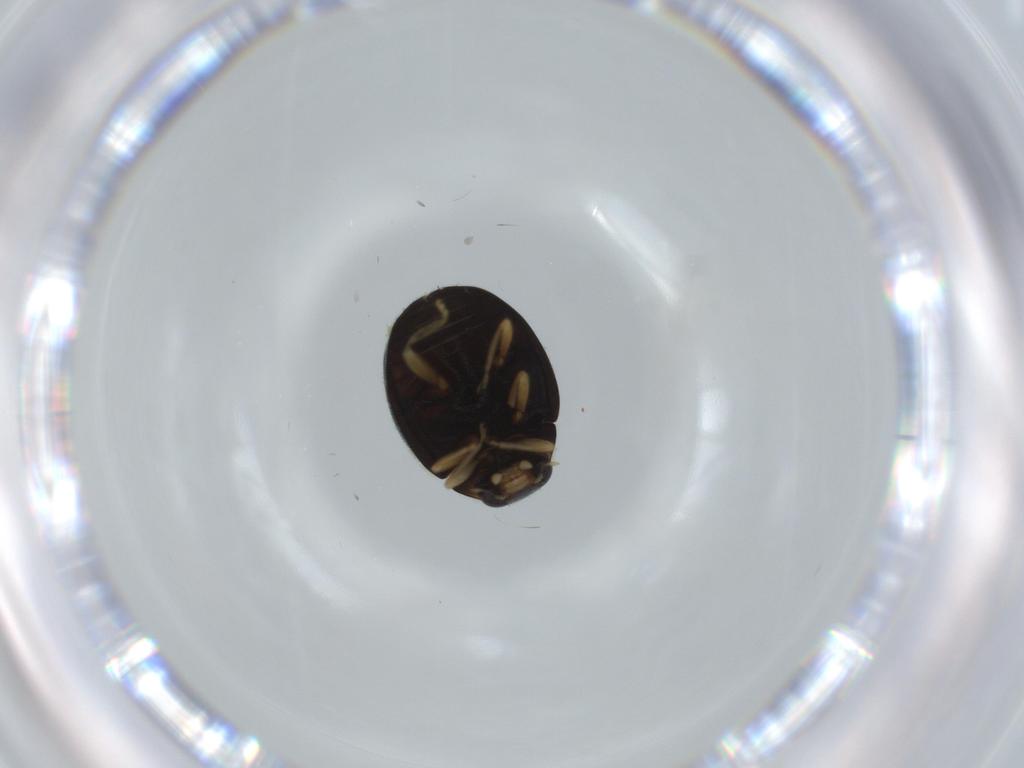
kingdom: Animalia
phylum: Arthropoda
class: Insecta
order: Coleoptera
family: Coccinellidae
